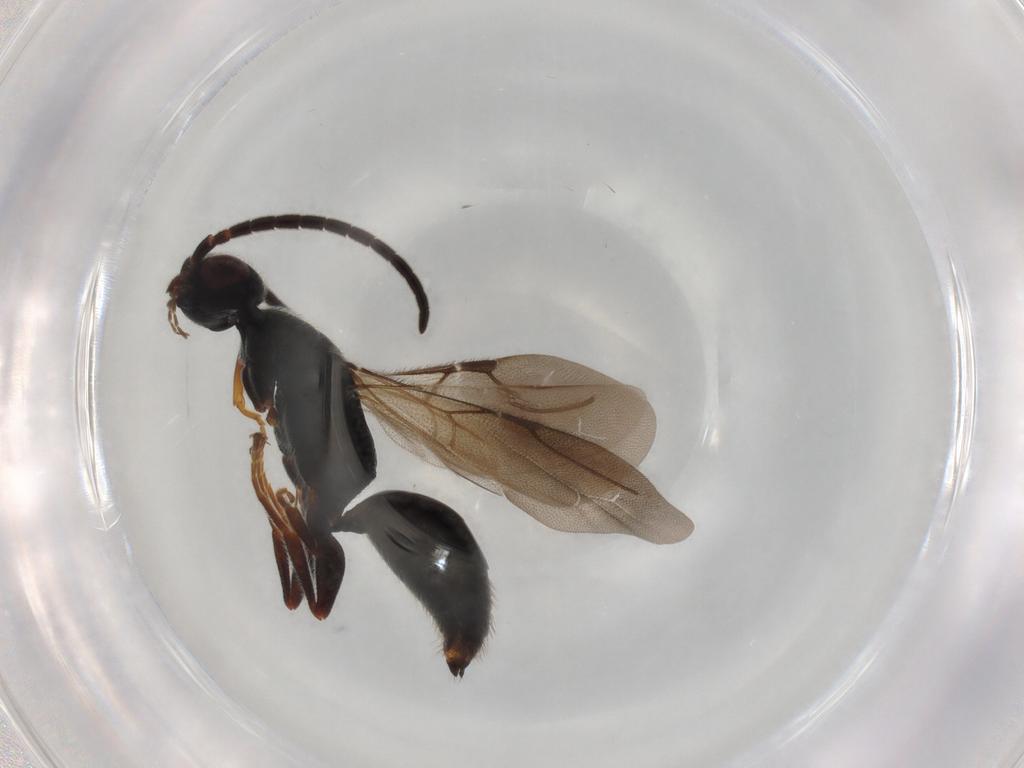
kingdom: Animalia
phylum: Arthropoda
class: Insecta
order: Hymenoptera
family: Bethylidae
